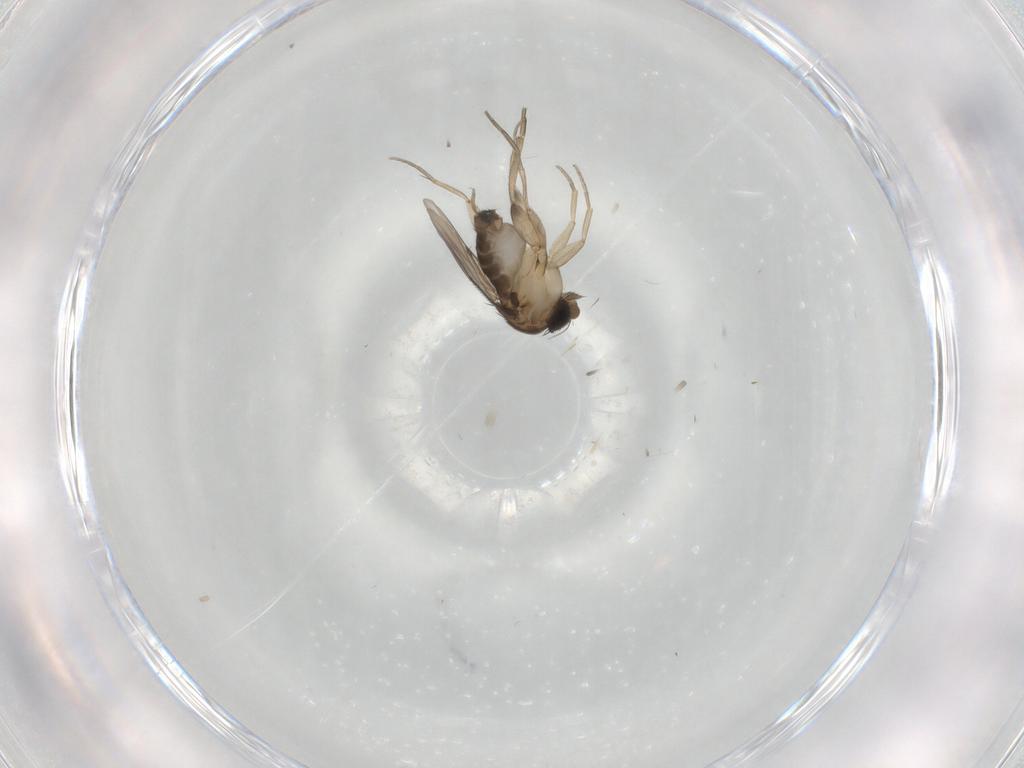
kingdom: Animalia
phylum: Arthropoda
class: Insecta
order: Diptera
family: Phoridae
